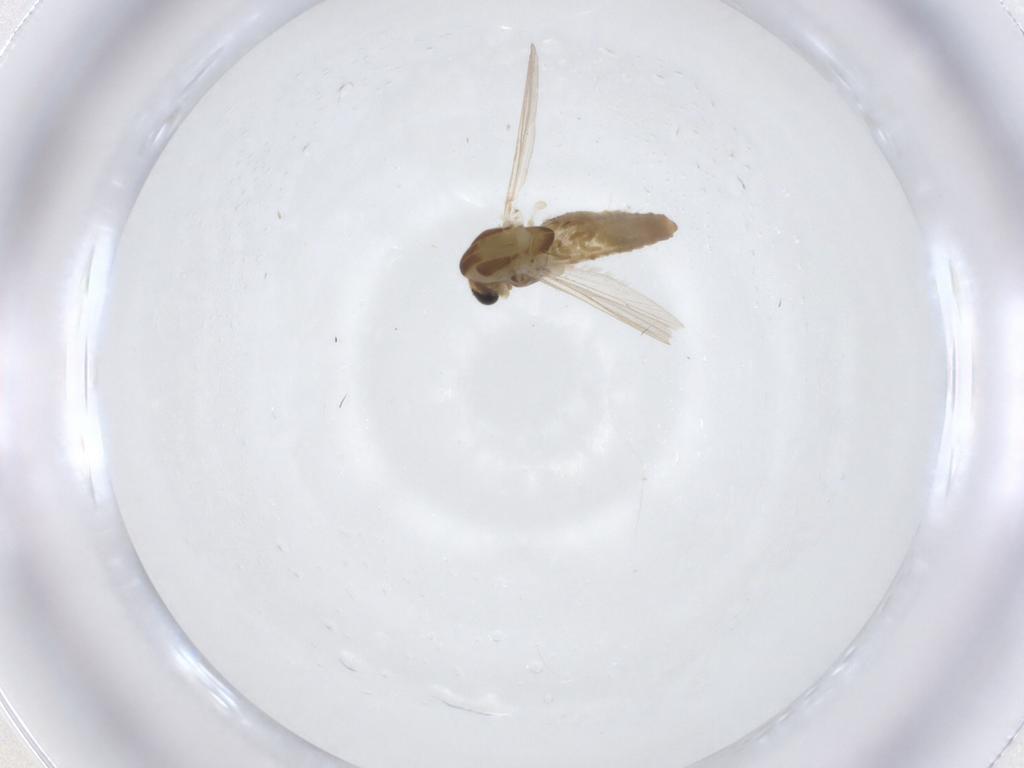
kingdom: Animalia
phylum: Arthropoda
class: Insecta
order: Diptera
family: Chironomidae
